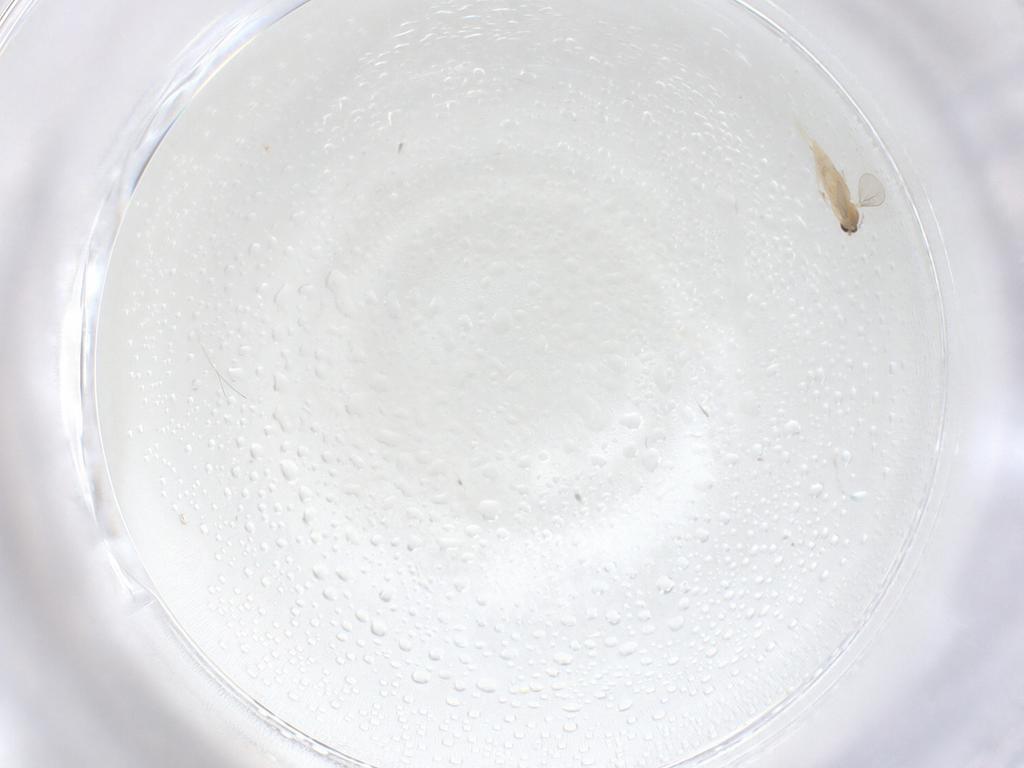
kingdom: Animalia
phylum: Arthropoda
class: Insecta
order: Diptera
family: Cecidomyiidae
